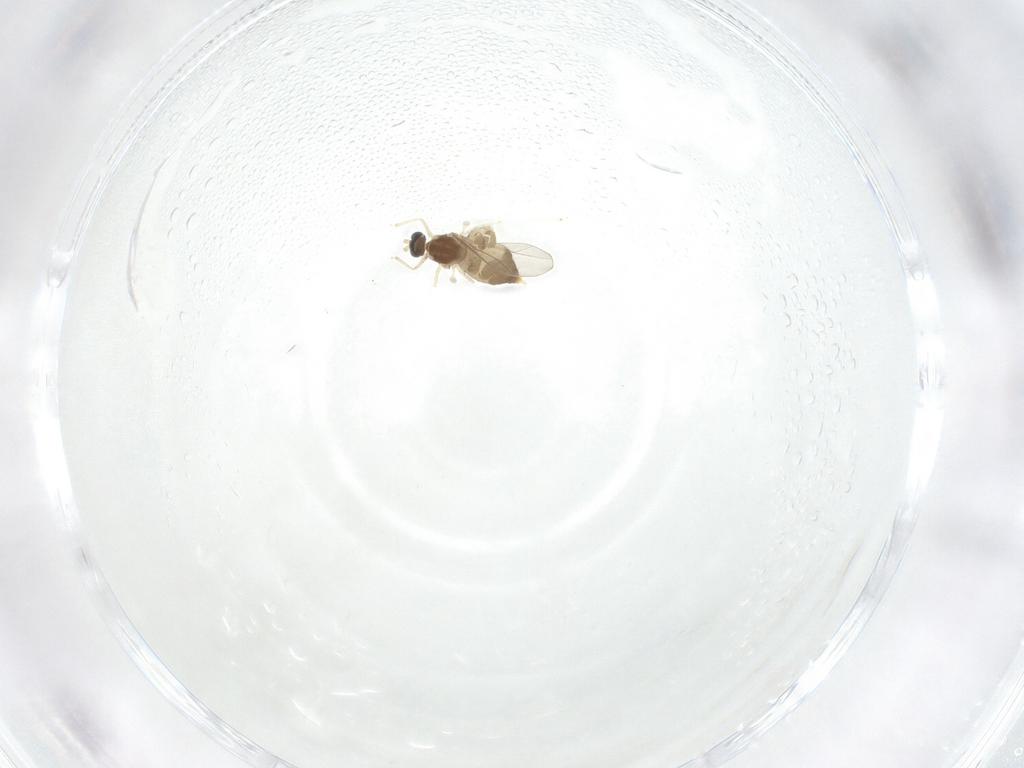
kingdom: Animalia
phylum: Arthropoda
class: Insecta
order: Diptera
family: Cecidomyiidae
